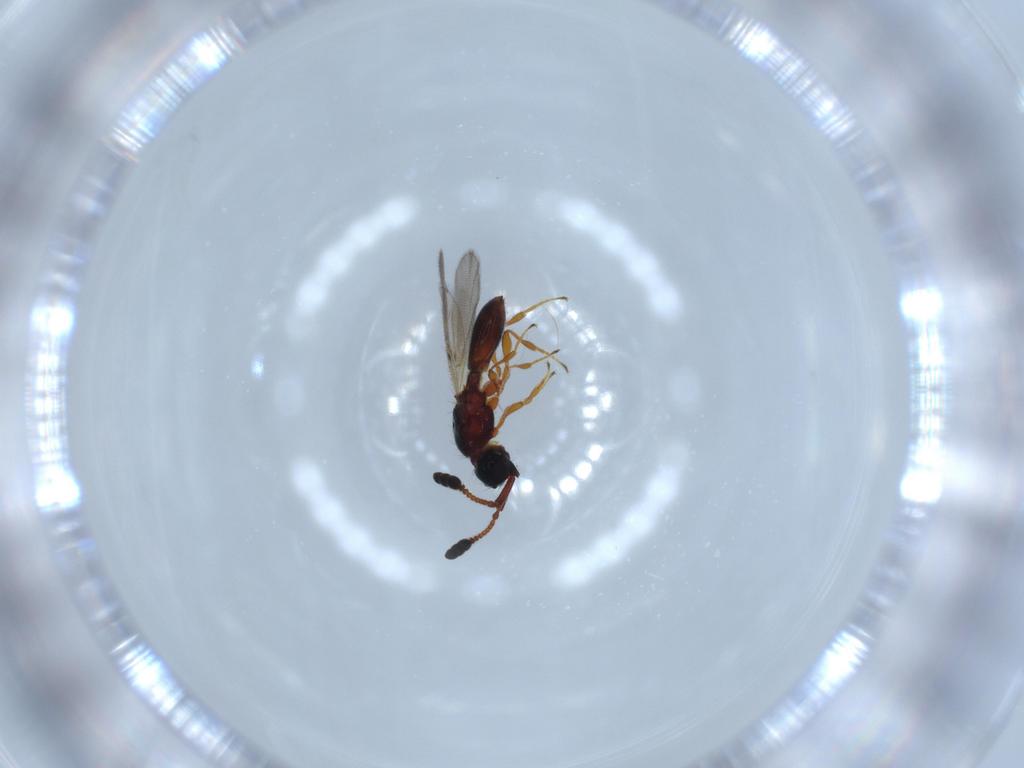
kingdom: Animalia
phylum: Arthropoda
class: Insecta
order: Hymenoptera
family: Diapriidae
